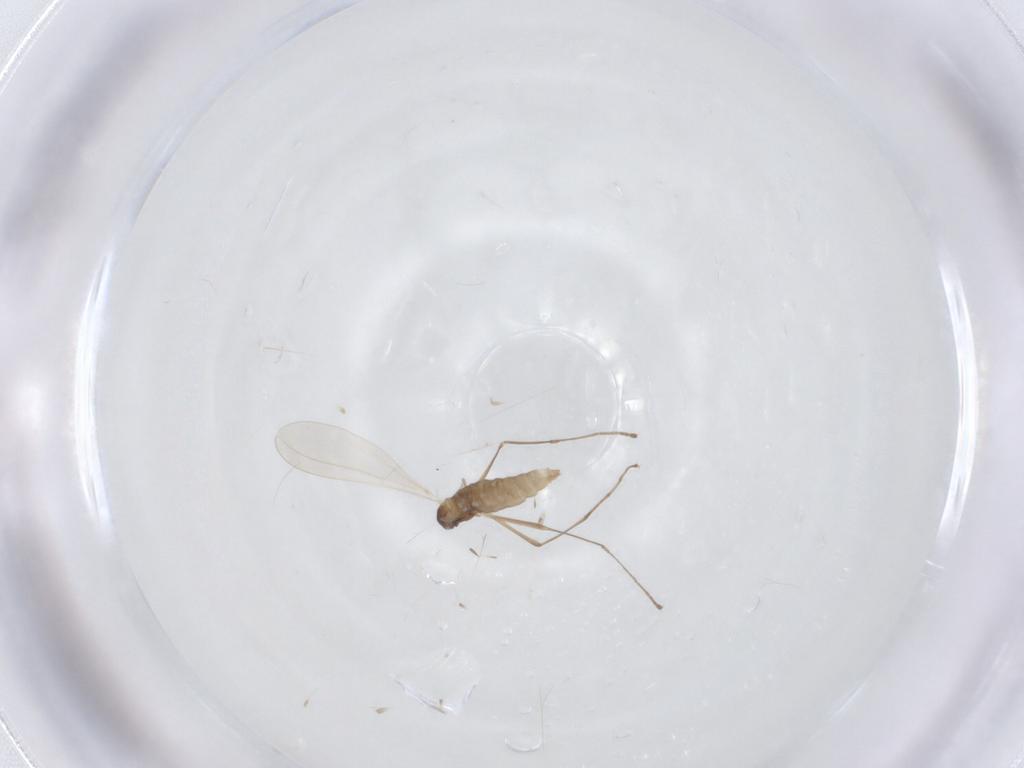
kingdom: Animalia
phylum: Arthropoda
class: Insecta
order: Diptera
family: Cecidomyiidae
